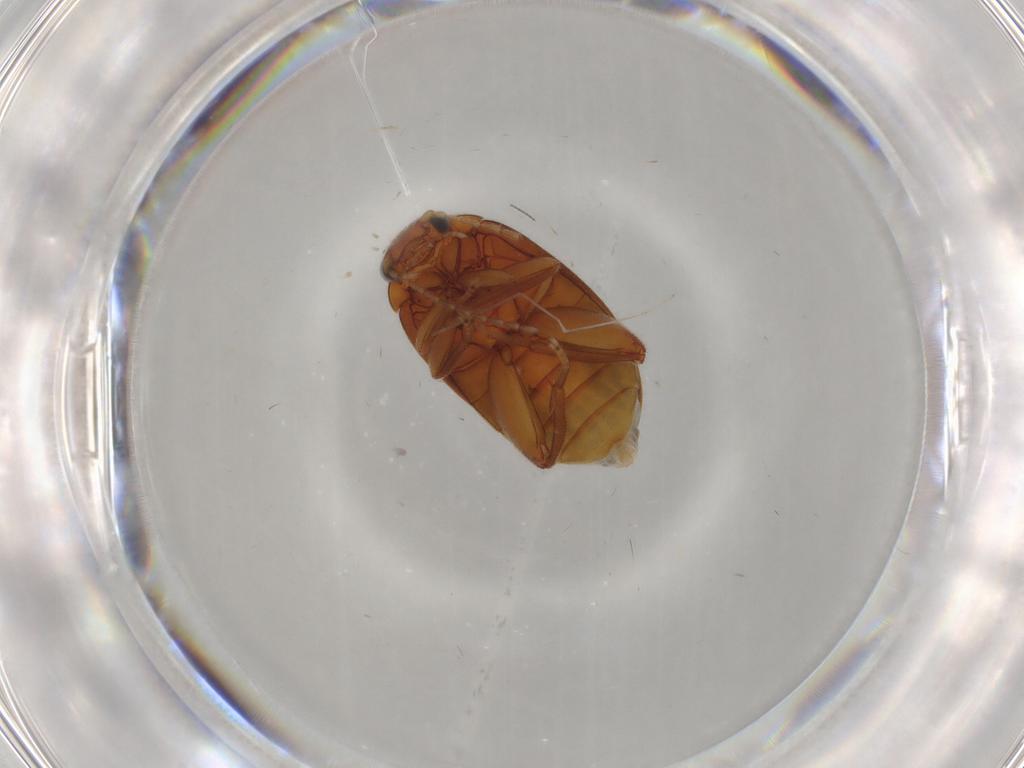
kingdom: Animalia
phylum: Arthropoda
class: Insecta
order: Coleoptera
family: Scirtidae
